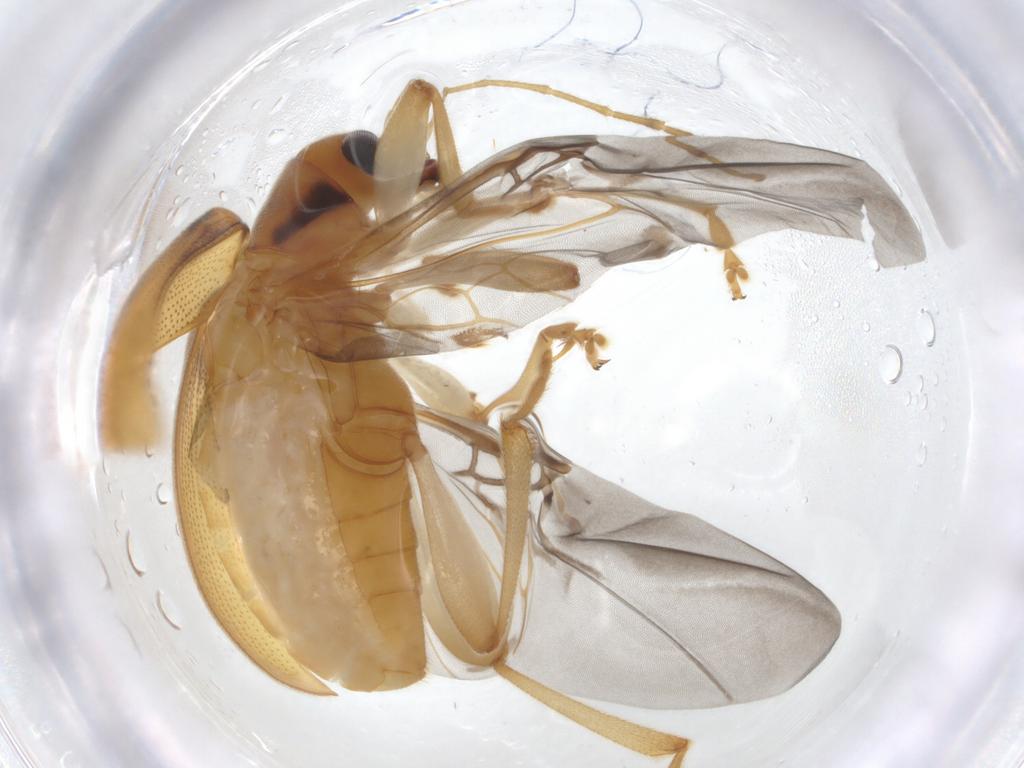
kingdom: Animalia
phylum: Arthropoda
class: Insecta
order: Coleoptera
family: Chrysomelidae
